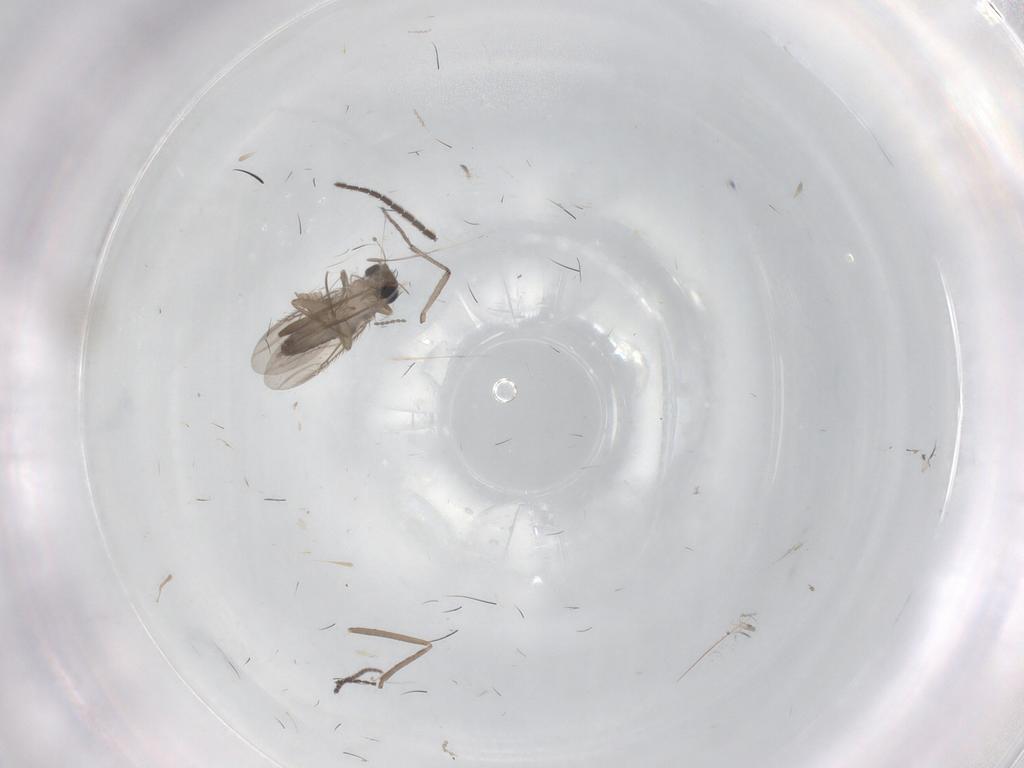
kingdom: Animalia
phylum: Arthropoda
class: Insecta
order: Diptera
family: Phoridae
